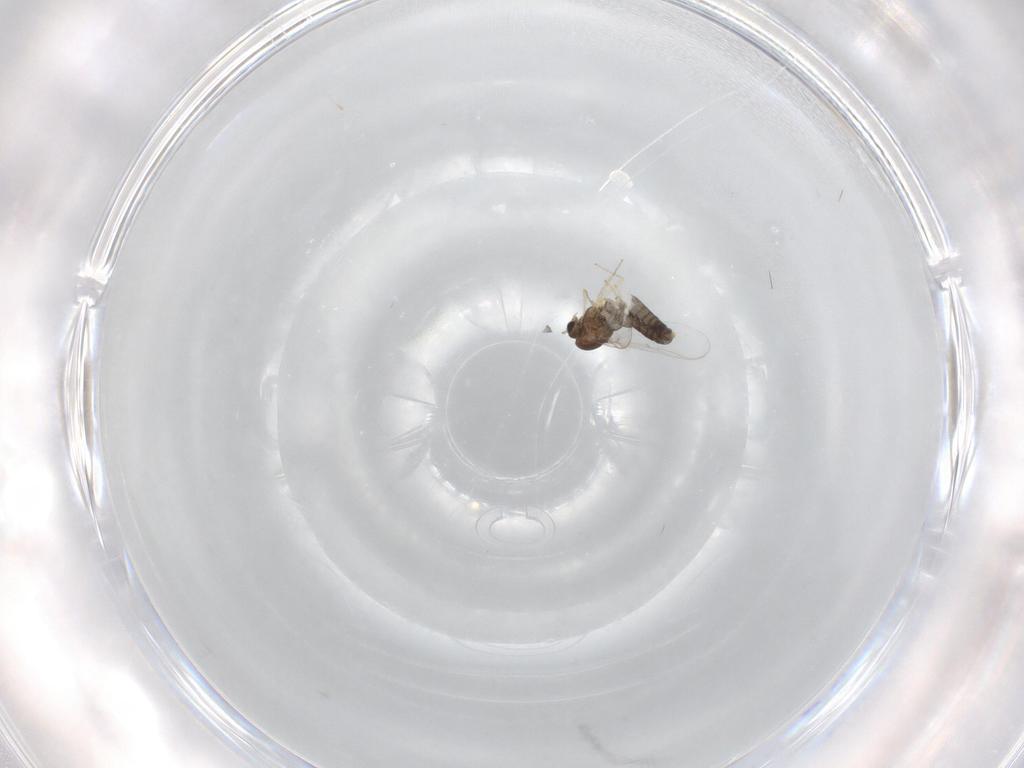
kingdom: Animalia
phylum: Arthropoda
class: Insecta
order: Diptera
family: Chironomidae
